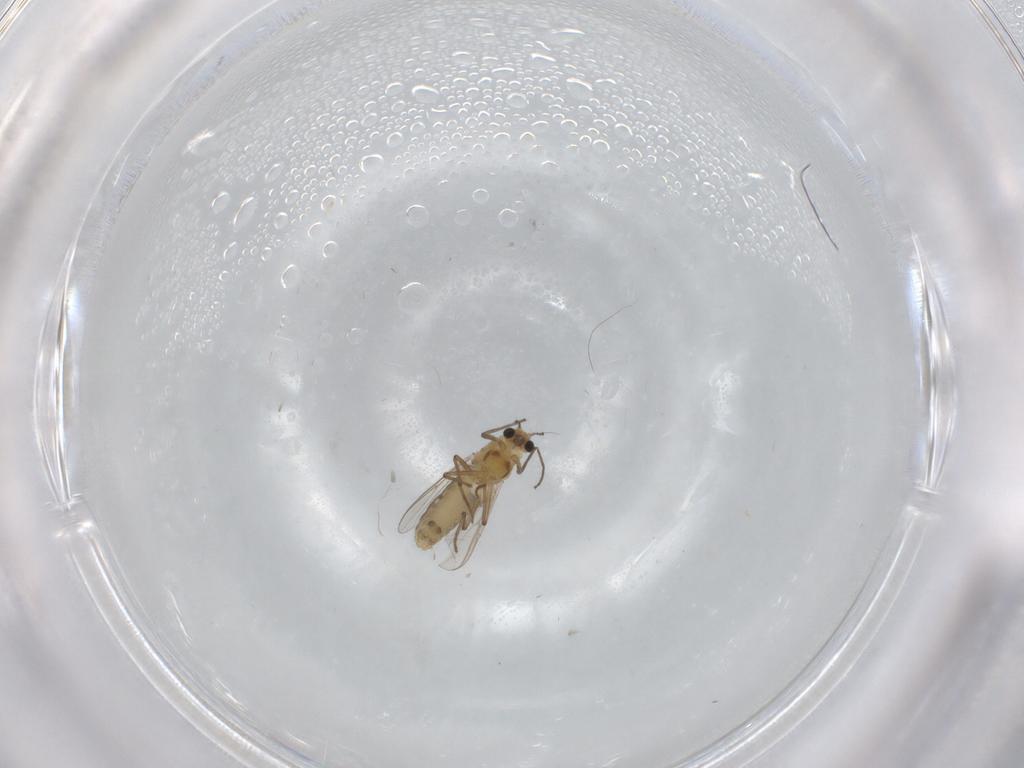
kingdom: Animalia
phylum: Arthropoda
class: Insecta
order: Diptera
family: Chironomidae
